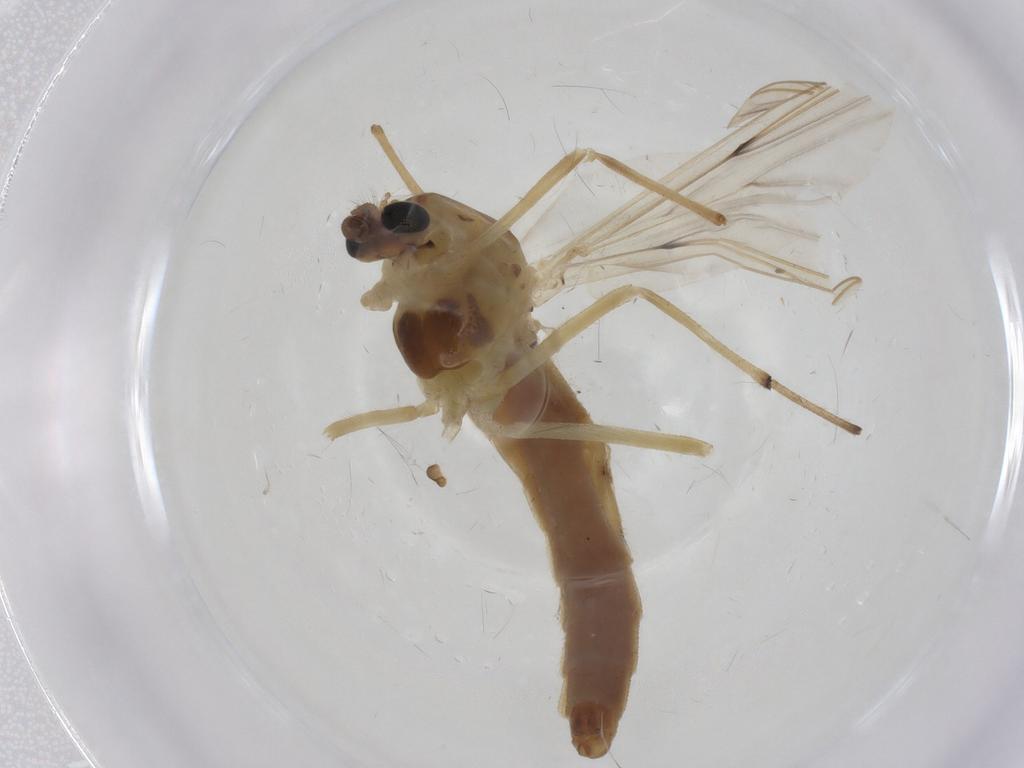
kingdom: Animalia
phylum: Arthropoda
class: Insecta
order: Diptera
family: Chironomidae
